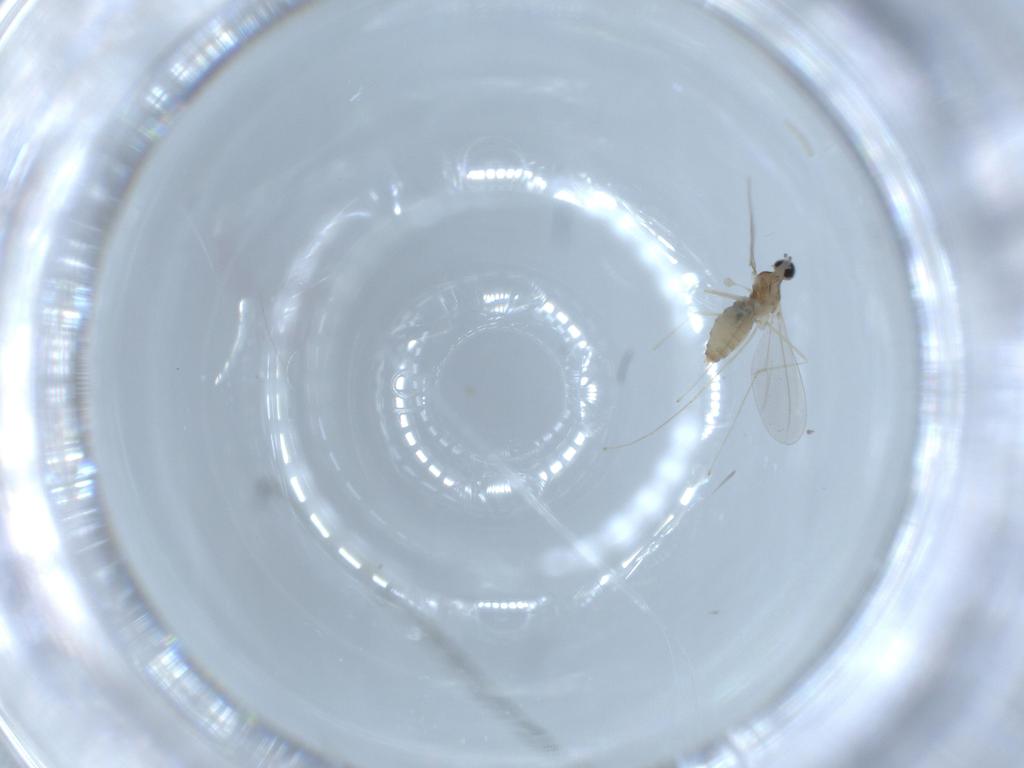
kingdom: Animalia
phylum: Arthropoda
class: Insecta
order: Diptera
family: Cecidomyiidae
